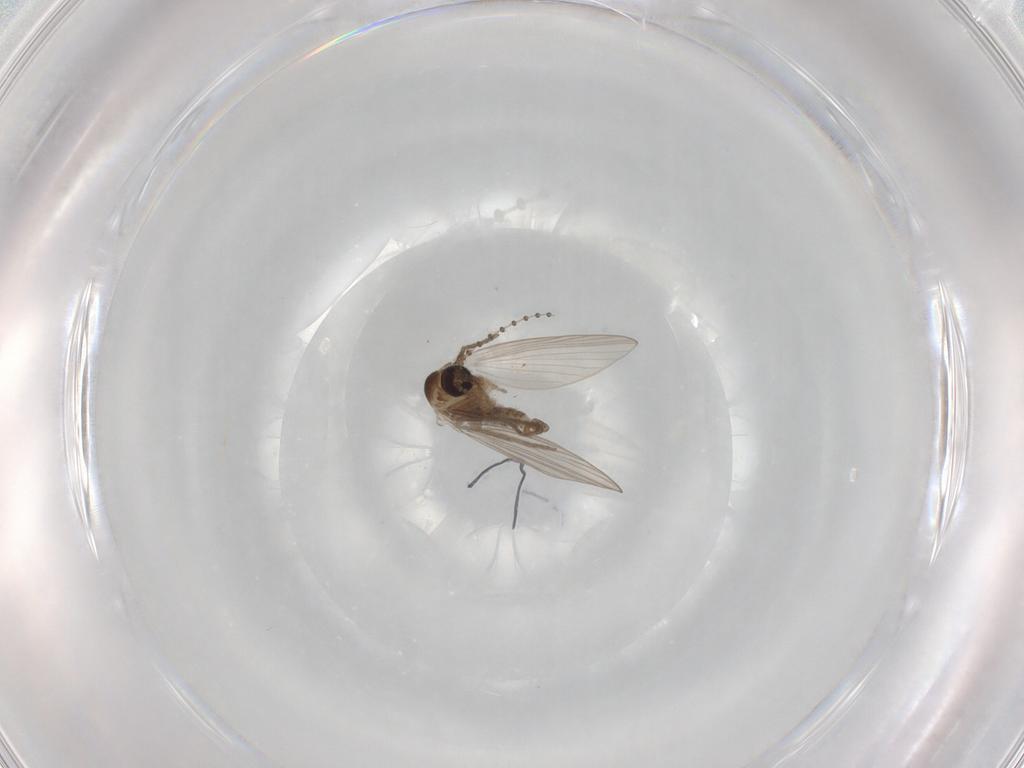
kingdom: Animalia
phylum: Arthropoda
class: Insecta
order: Diptera
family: Psychodidae
